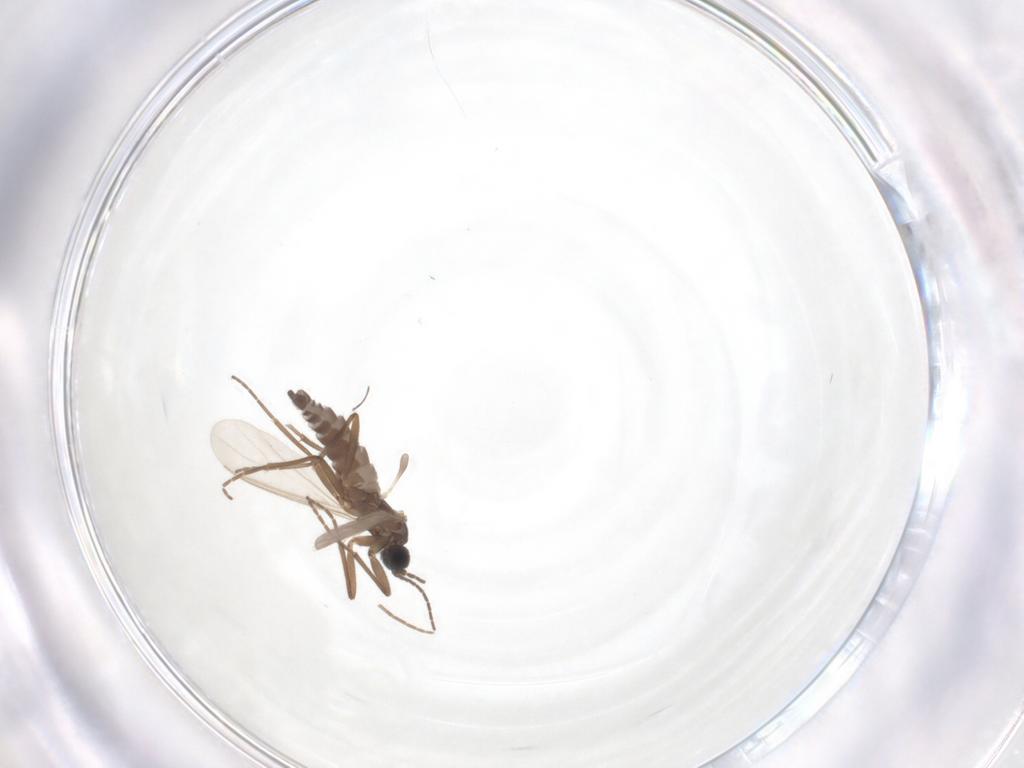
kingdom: Animalia
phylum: Arthropoda
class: Insecta
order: Diptera
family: Sciaridae
